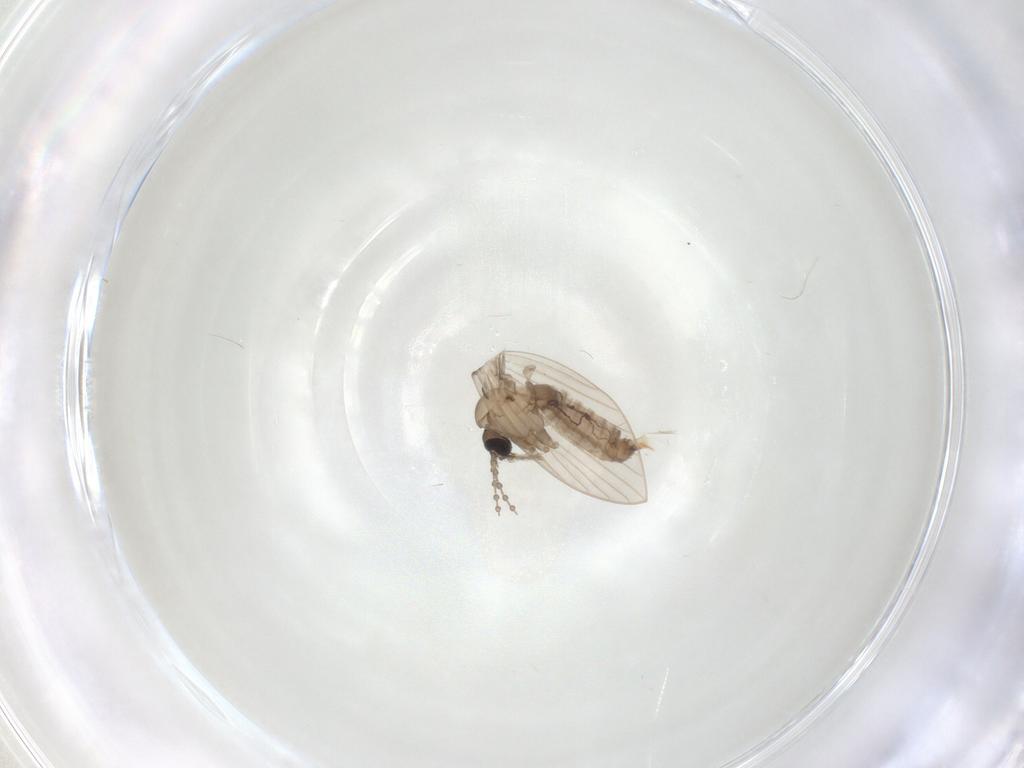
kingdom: Animalia
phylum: Arthropoda
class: Insecta
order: Diptera
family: Psychodidae
